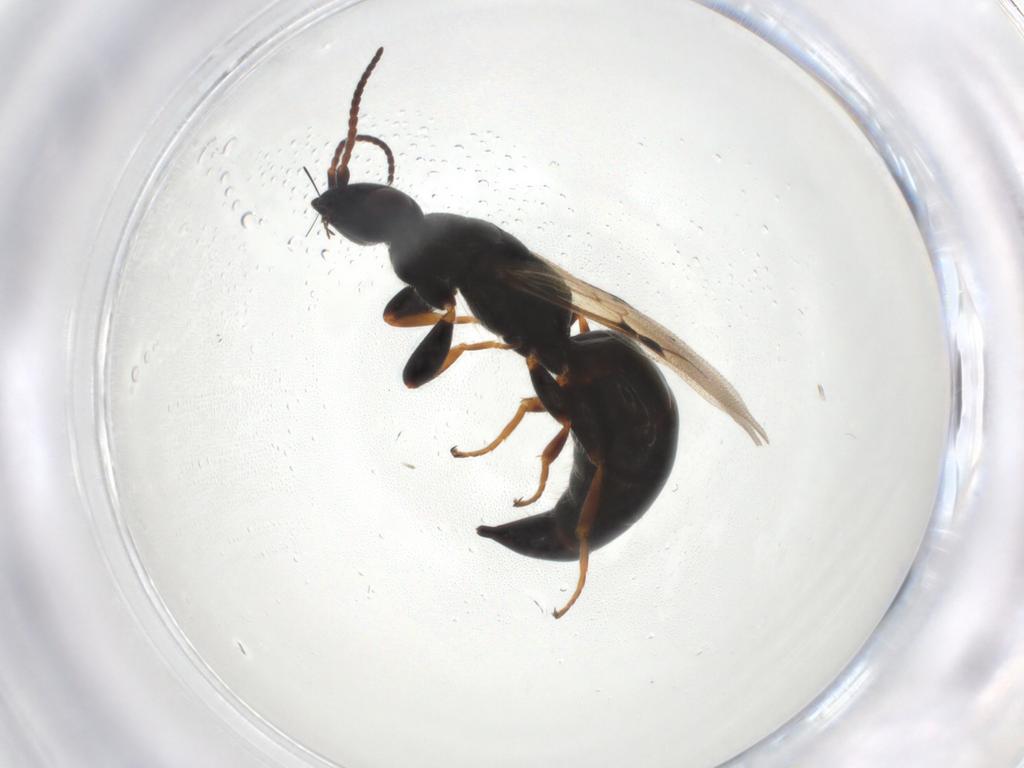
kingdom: Animalia
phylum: Arthropoda
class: Insecta
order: Hymenoptera
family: Bethylidae
